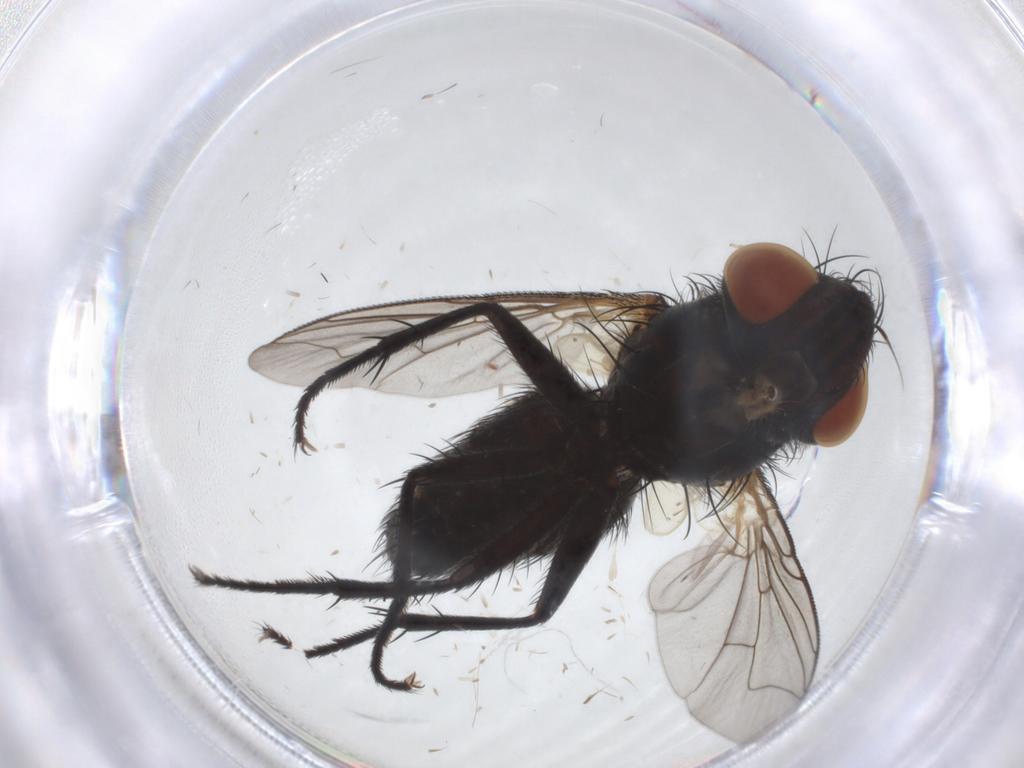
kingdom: Animalia
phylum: Arthropoda
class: Insecta
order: Diptera
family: Sarcophagidae
